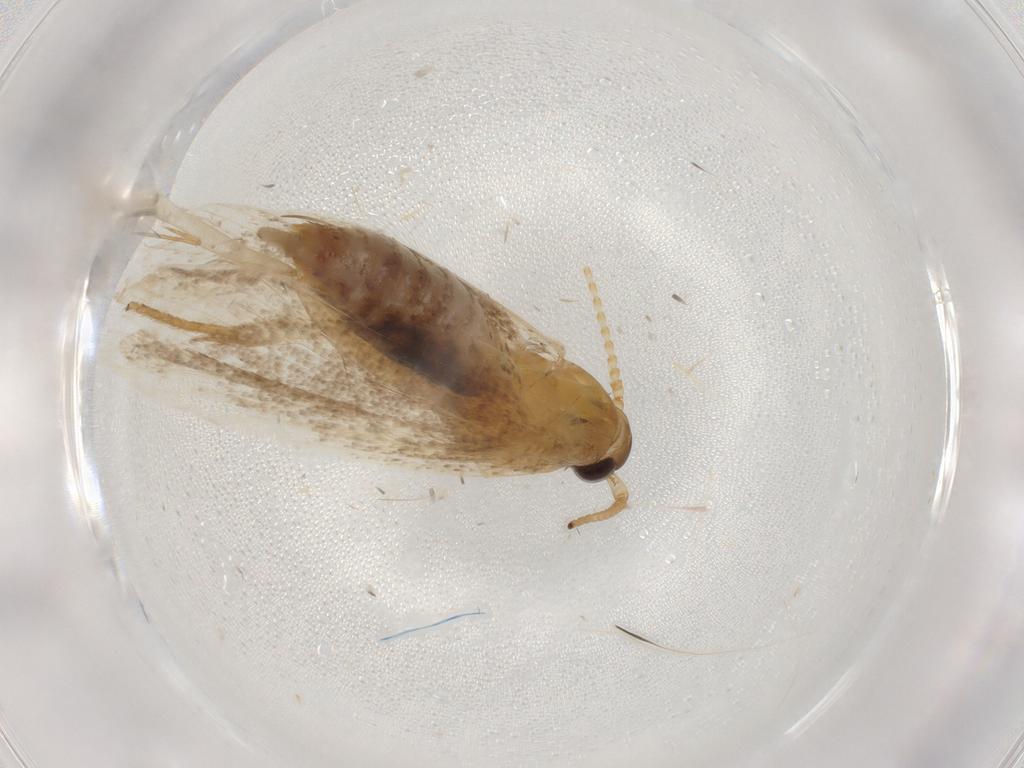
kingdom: Animalia
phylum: Arthropoda
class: Insecta
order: Lepidoptera
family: Lecithoceridae
